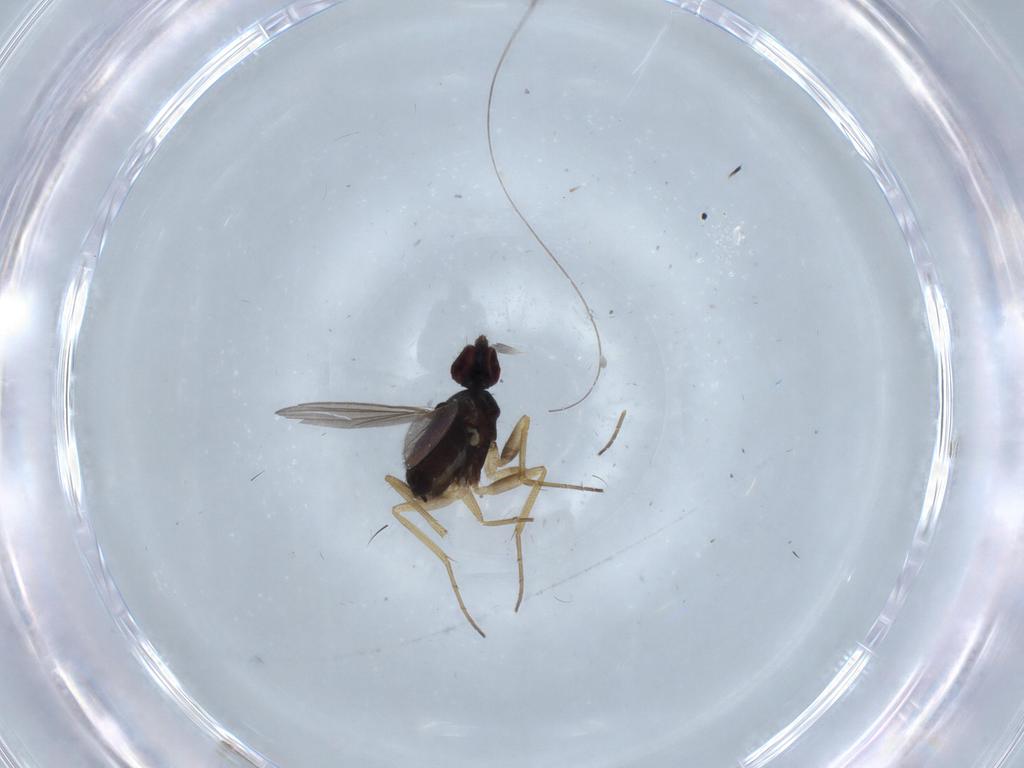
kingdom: Animalia
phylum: Arthropoda
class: Insecta
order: Diptera
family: Dolichopodidae
